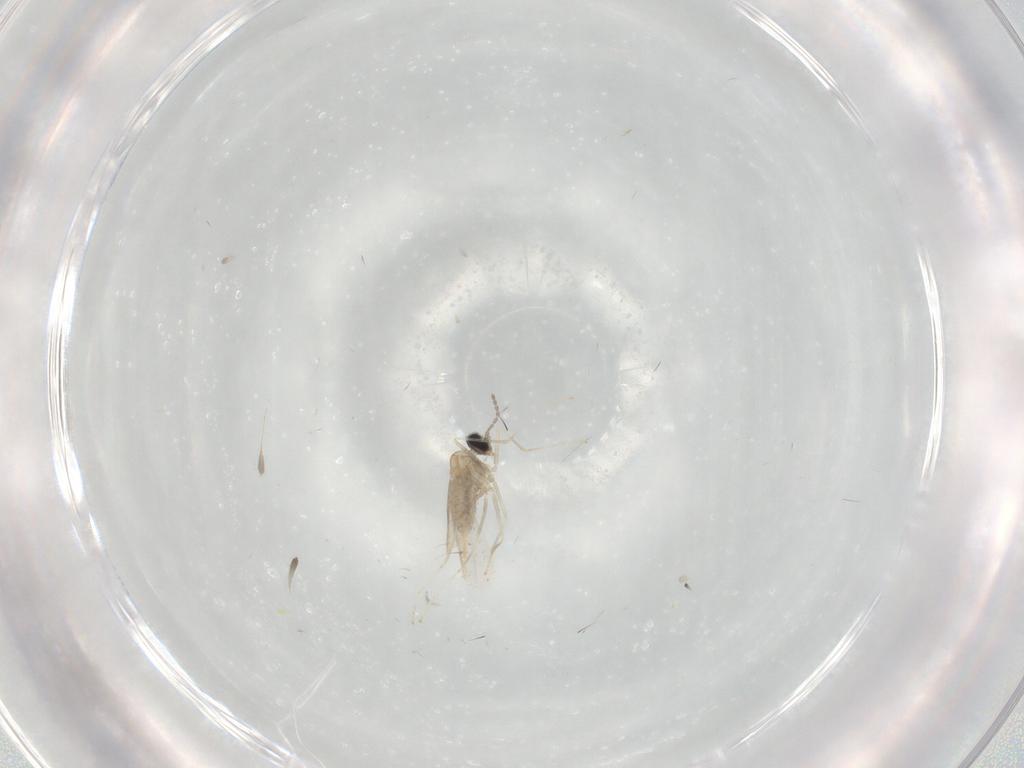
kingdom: Animalia
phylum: Arthropoda
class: Insecta
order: Diptera
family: Cecidomyiidae
